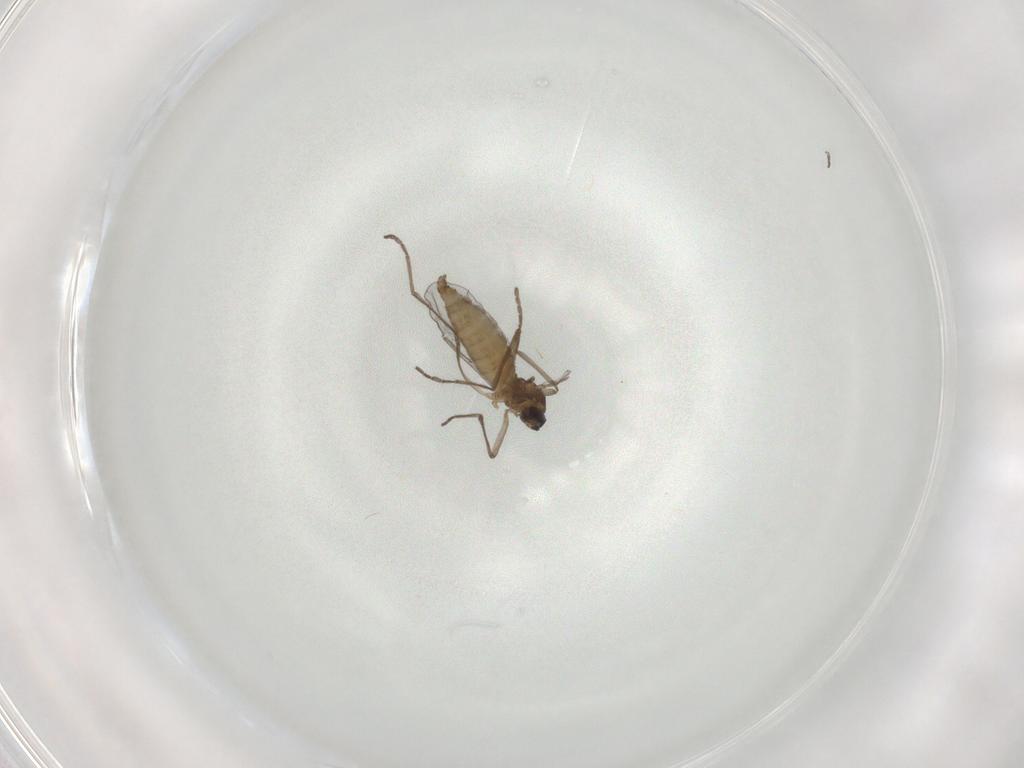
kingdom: Animalia
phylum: Arthropoda
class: Insecta
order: Diptera
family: Cecidomyiidae
